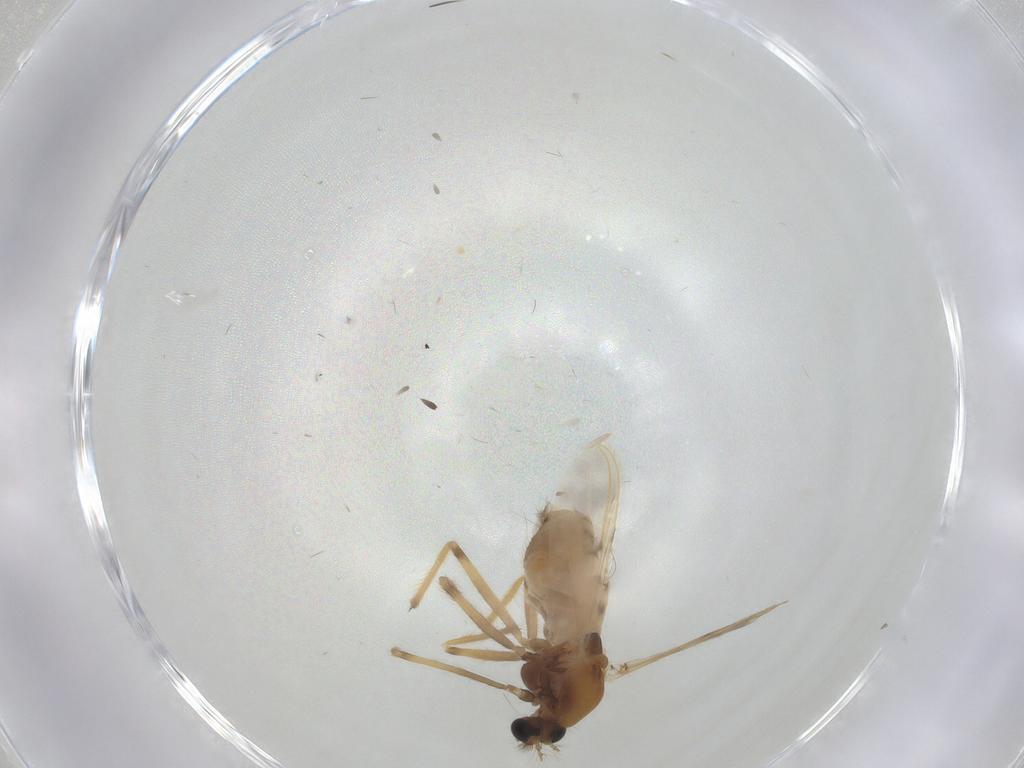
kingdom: Animalia
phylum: Arthropoda
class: Insecta
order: Diptera
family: Chironomidae
